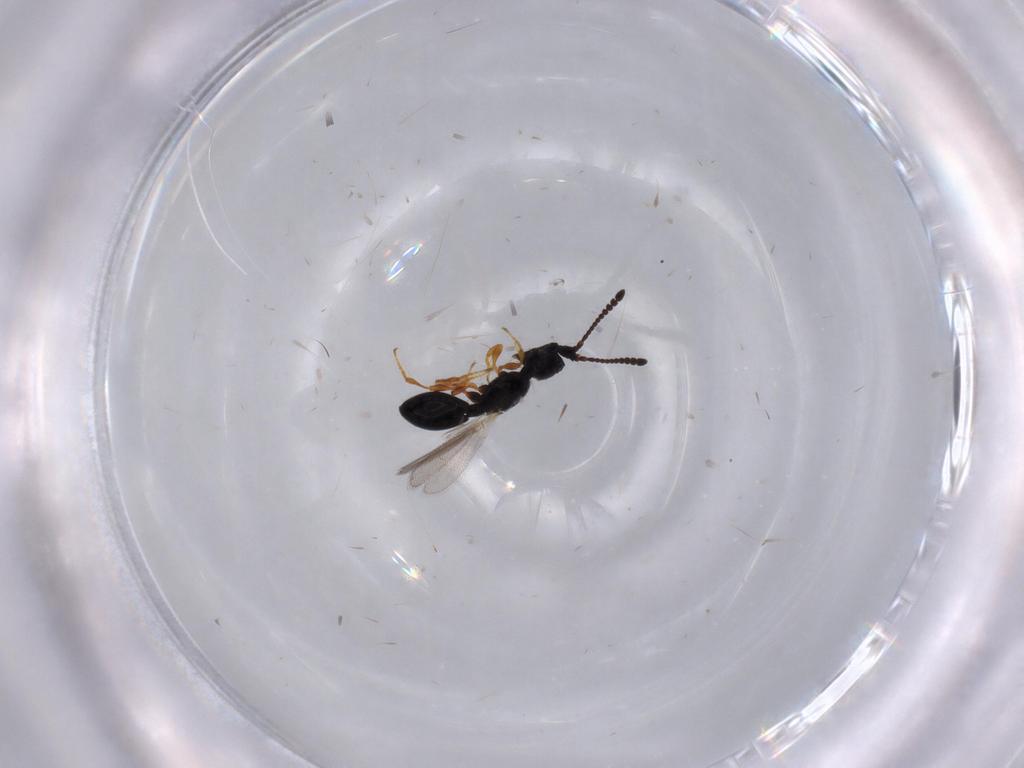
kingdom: Animalia
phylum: Arthropoda
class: Insecta
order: Hymenoptera
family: Diapriidae
